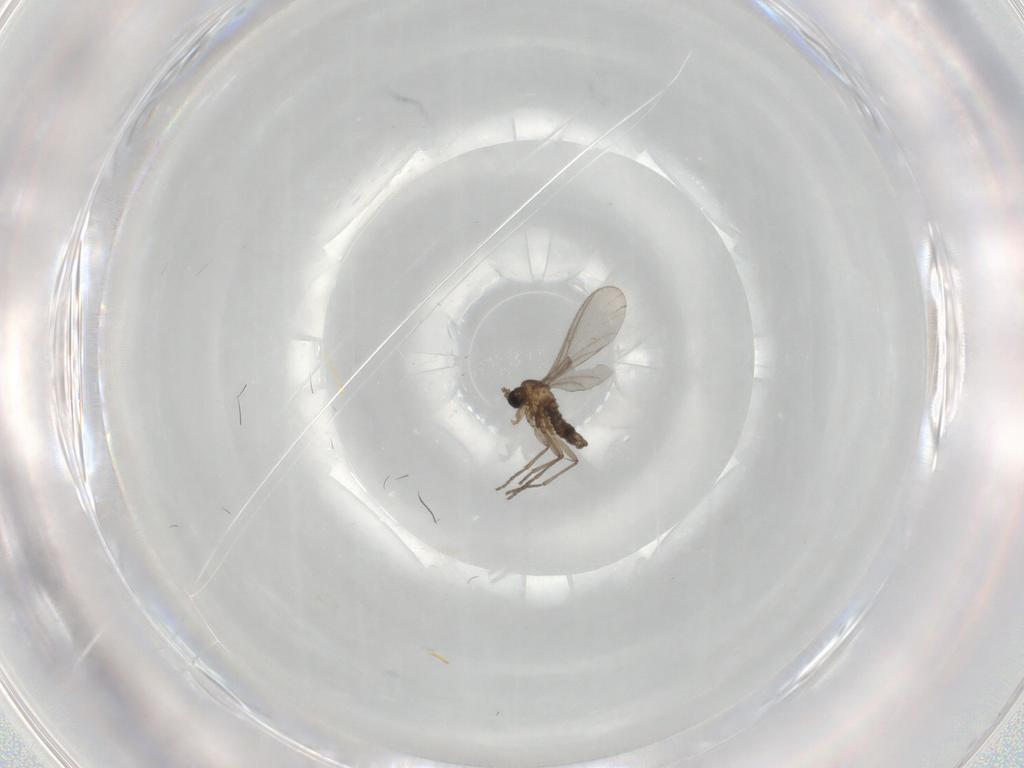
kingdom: Animalia
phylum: Arthropoda
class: Insecta
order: Diptera
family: Sciaridae
